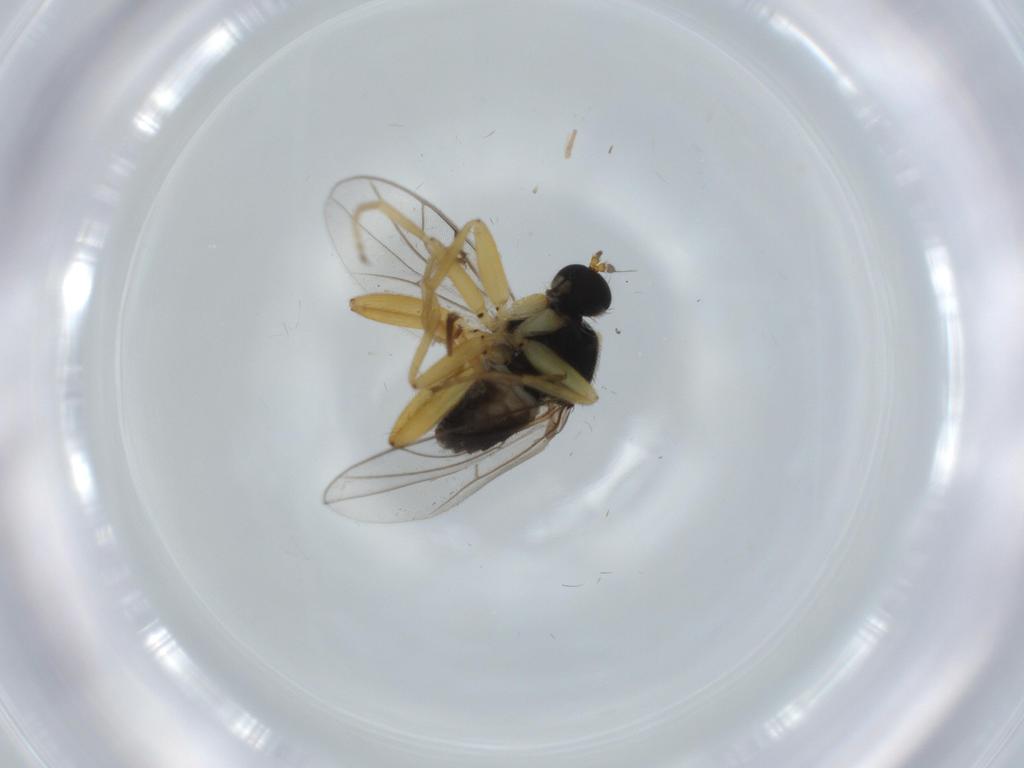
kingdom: Animalia
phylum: Arthropoda
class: Insecta
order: Diptera
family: Hybotidae
